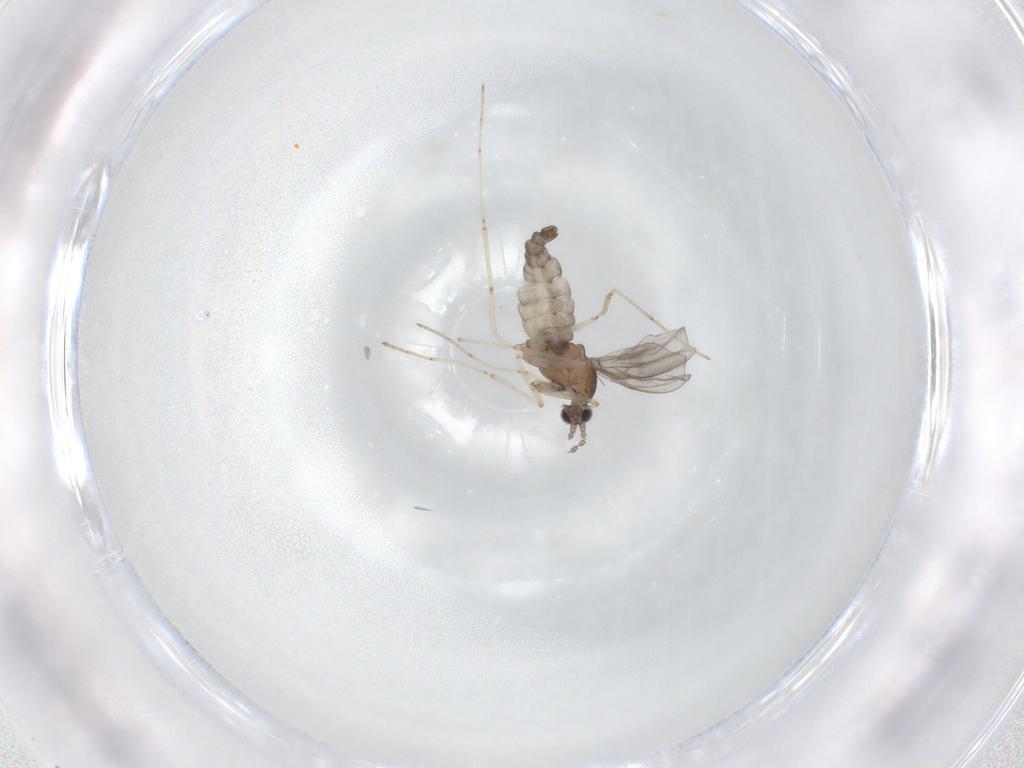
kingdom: Animalia
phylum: Arthropoda
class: Insecta
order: Diptera
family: Cecidomyiidae
